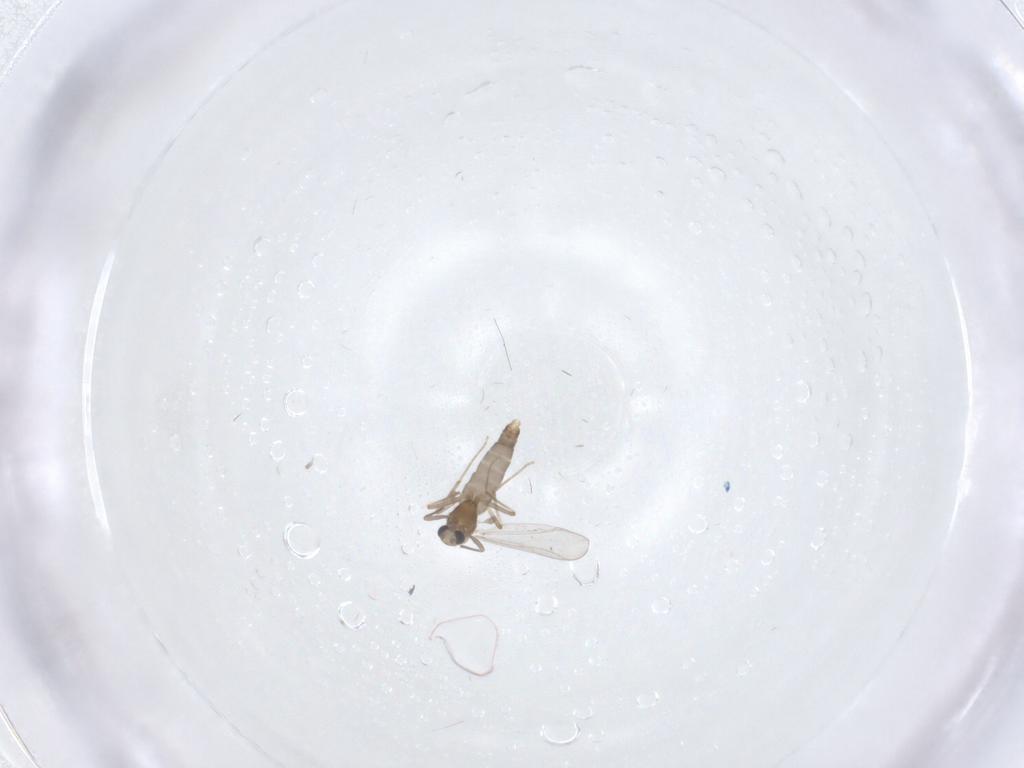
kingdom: Animalia
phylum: Arthropoda
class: Insecta
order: Diptera
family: Chironomidae
